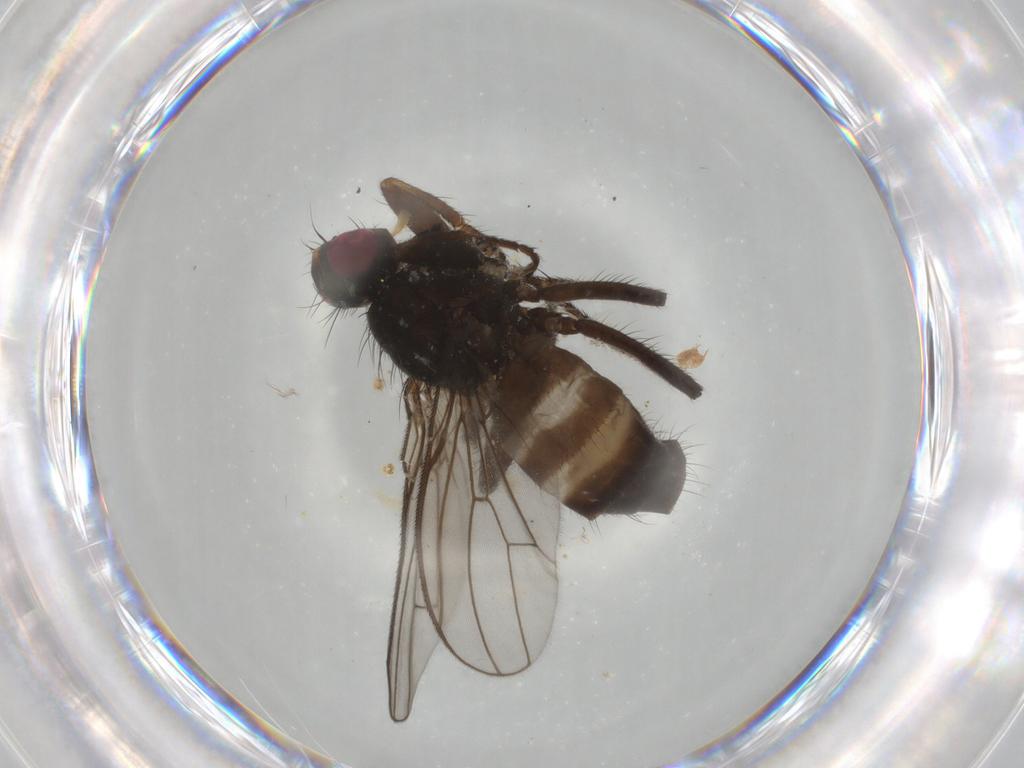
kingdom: Animalia
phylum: Arthropoda
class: Insecta
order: Diptera
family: Scathophagidae
